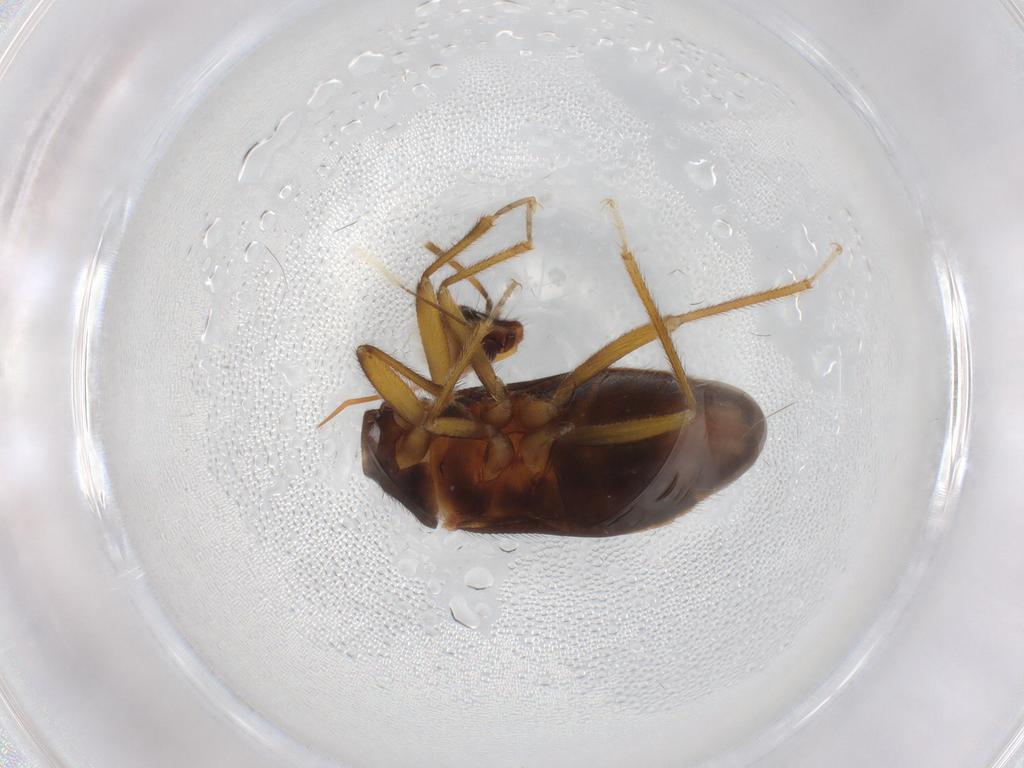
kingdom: Animalia
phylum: Arthropoda
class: Insecta
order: Hemiptera
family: Anthocoridae
